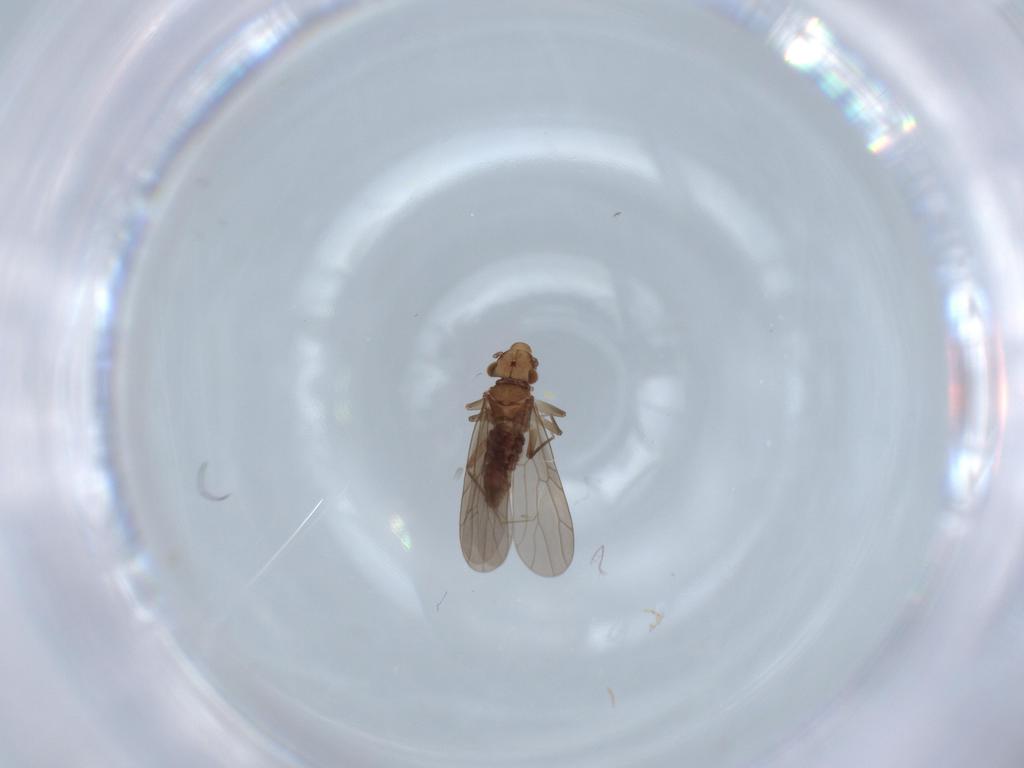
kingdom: Animalia
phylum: Arthropoda
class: Insecta
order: Psocodea
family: Lepidopsocidae
